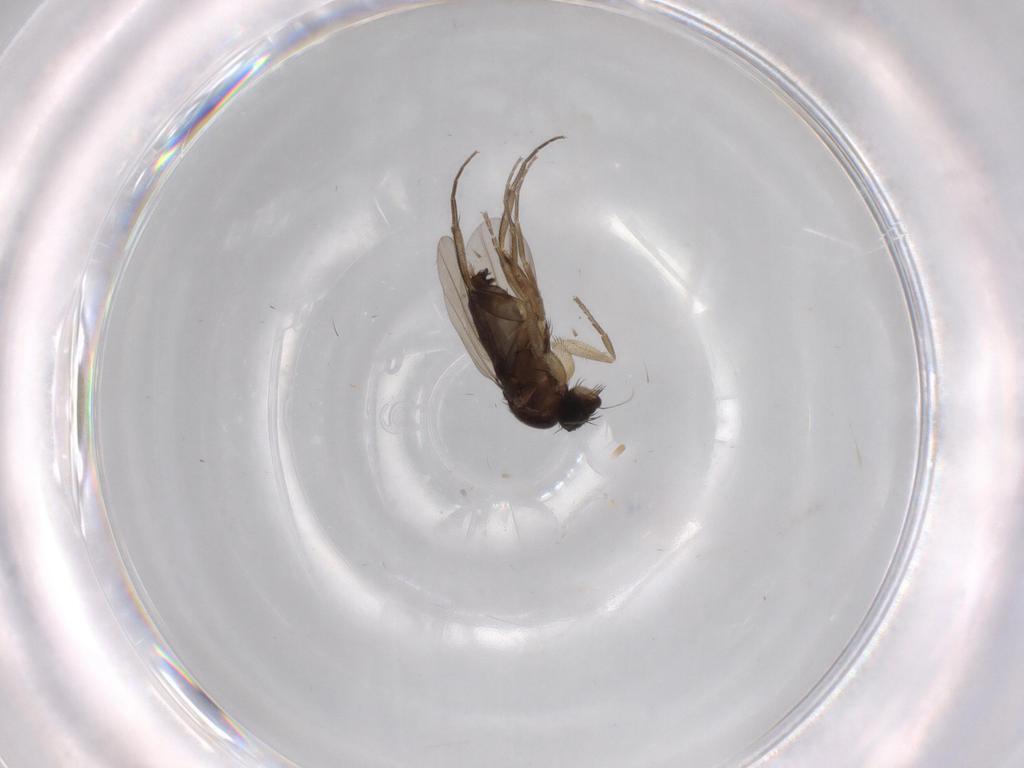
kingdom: Animalia
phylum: Arthropoda
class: Insecta
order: Diptera
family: Phoridae
